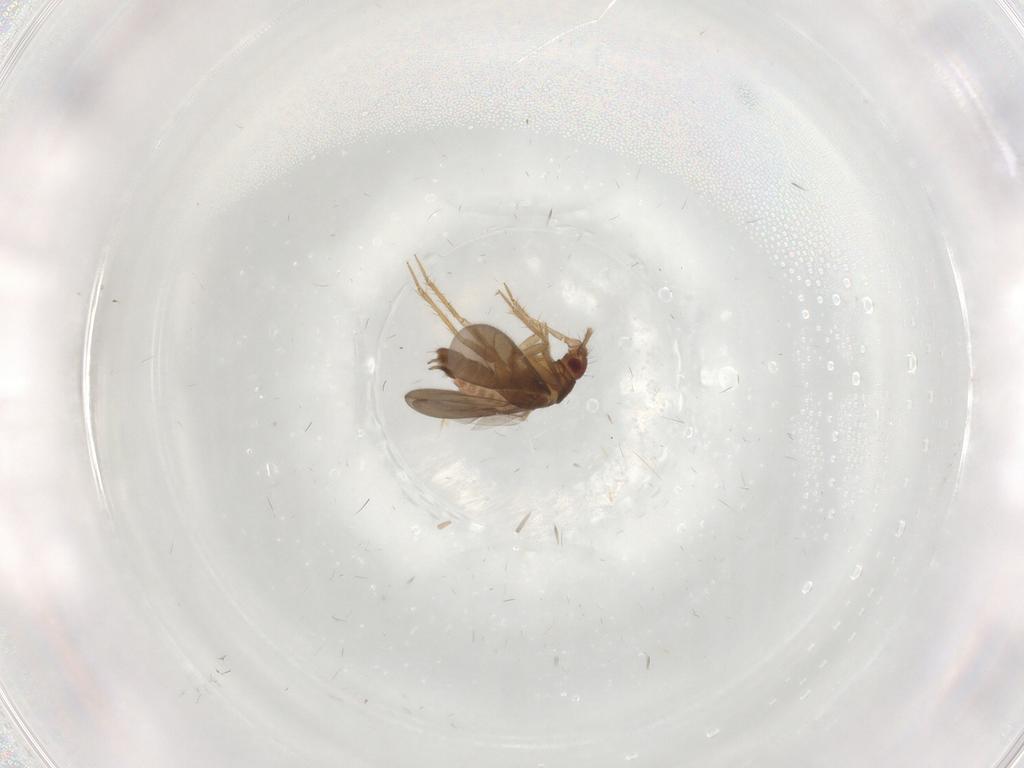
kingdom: Animalia
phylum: Arthropoda
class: Insecta
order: Hemiptera
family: Ceratocombidae
